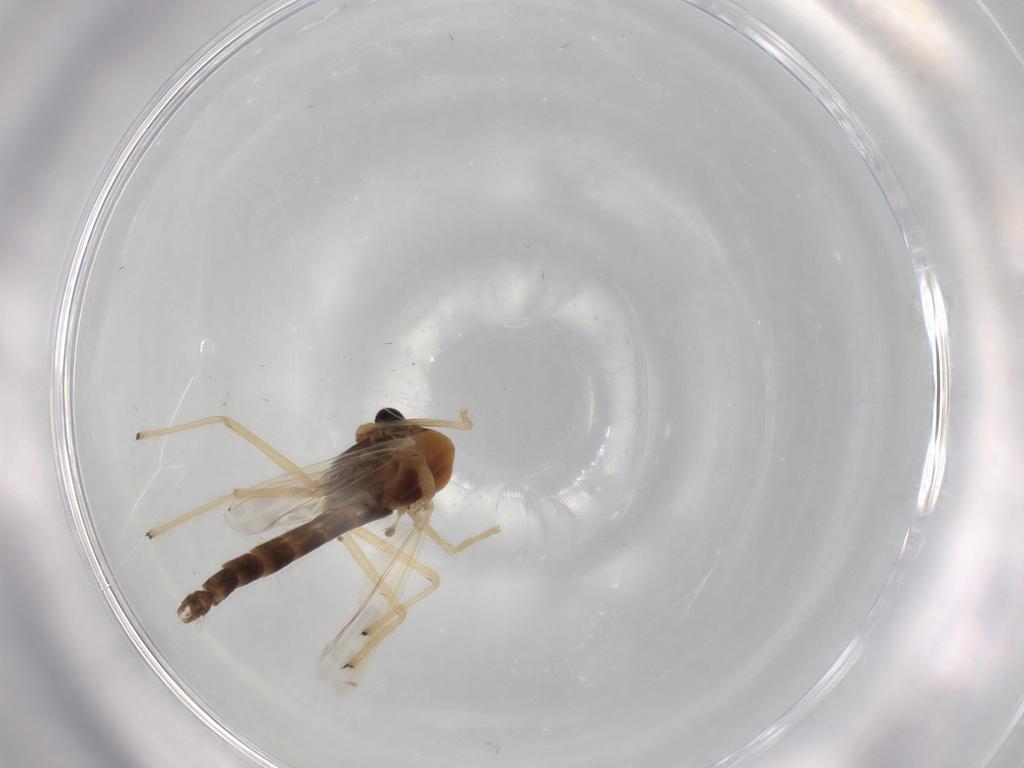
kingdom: Animalia
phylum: Arthropoda
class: Insecta
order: Diptera
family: Chironomidae
